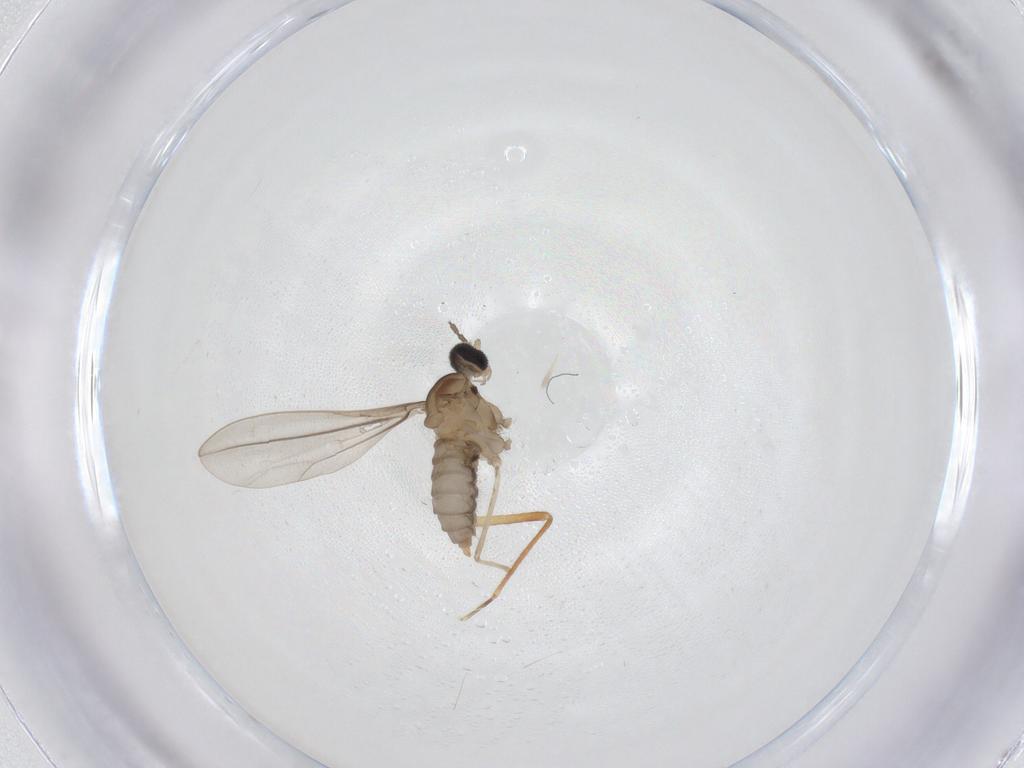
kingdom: Animalia
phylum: Arthropoda
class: Insecta
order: Diptera
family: Cecidomyiidae
